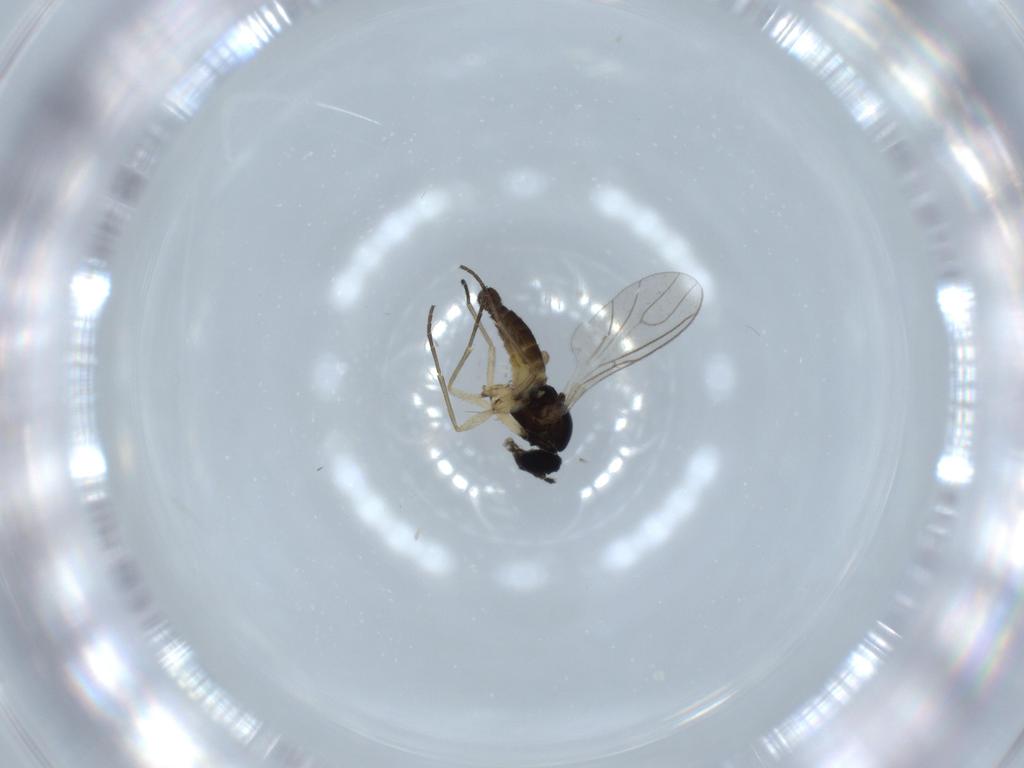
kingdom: Animalia
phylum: Arthropoda
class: Insecta
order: Diptera
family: Sciaridae
